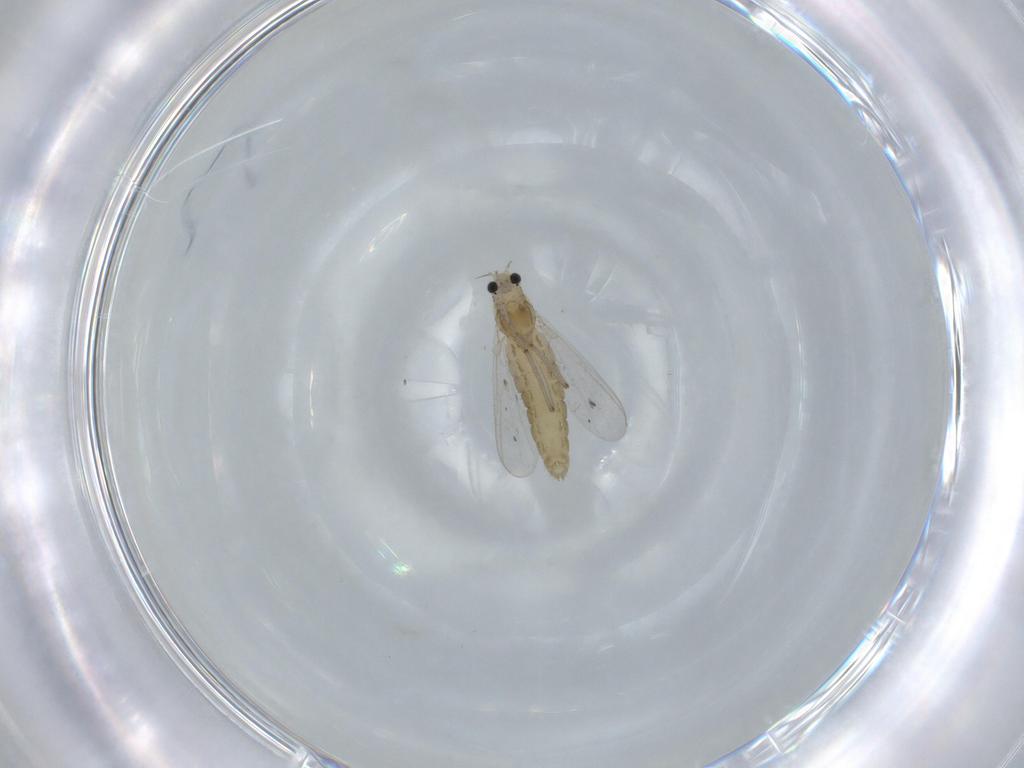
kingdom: Animalia
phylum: Arthropoda
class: Insecta
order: Diptera
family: Chironomidae
